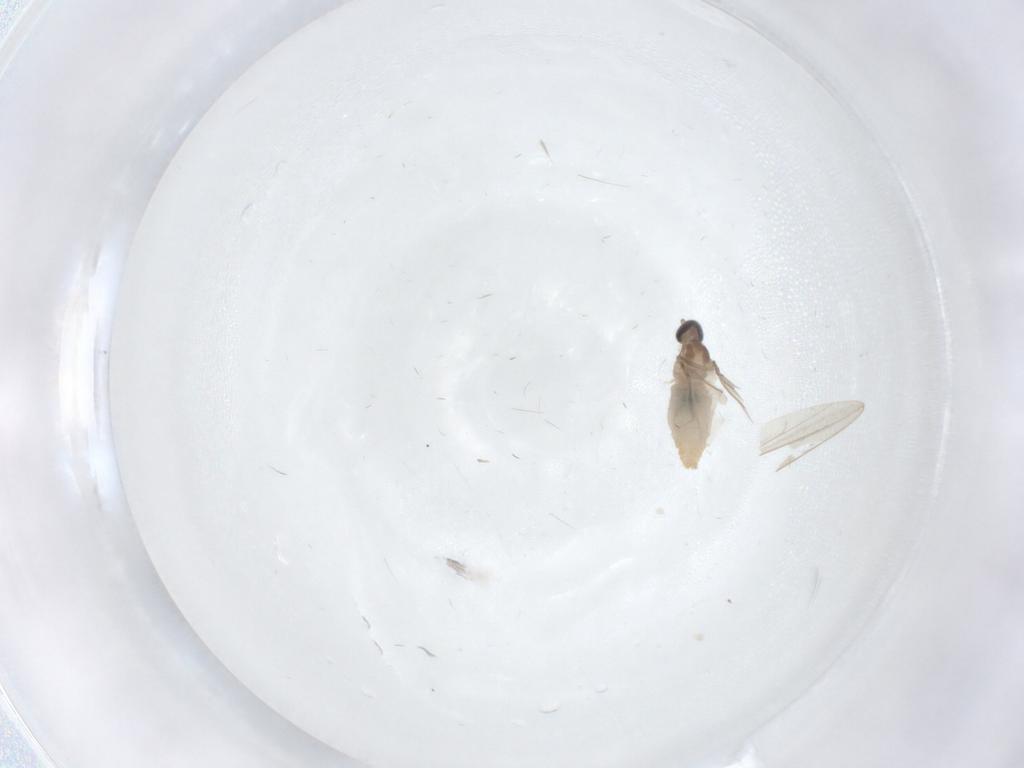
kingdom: Animalia
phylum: Arthropoda
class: Insecta
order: Diptera
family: Cecidomyiidae
